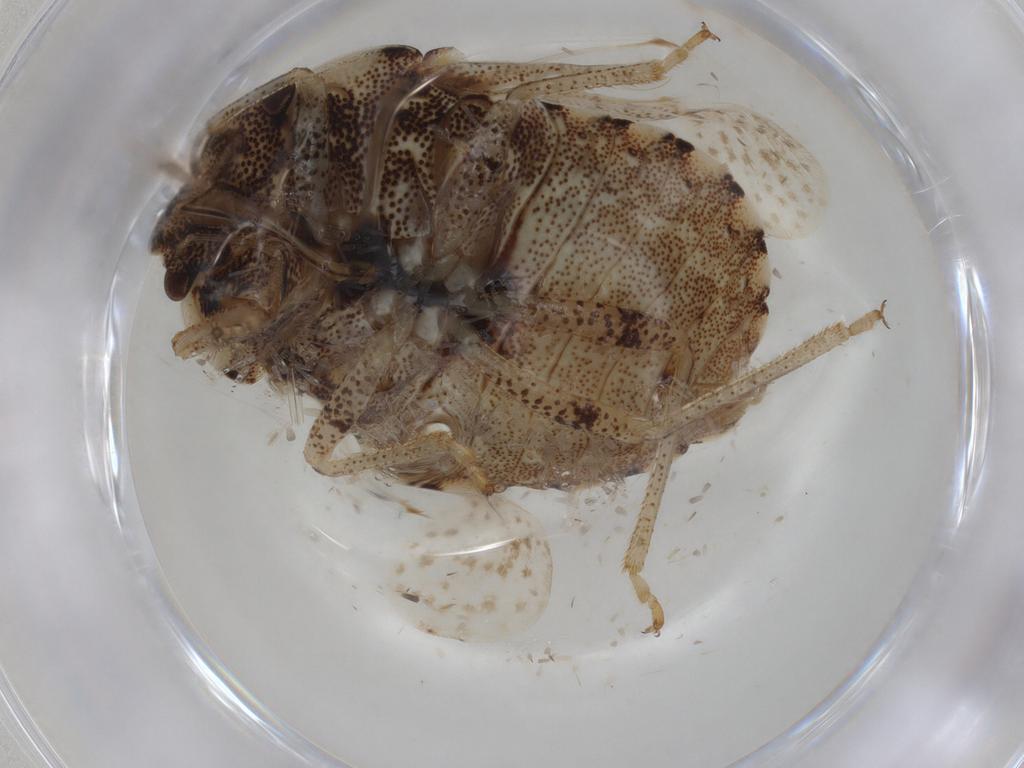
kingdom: Animalia
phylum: Arthropoda
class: Insecta
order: Hemiptera
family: Pentatomidae
